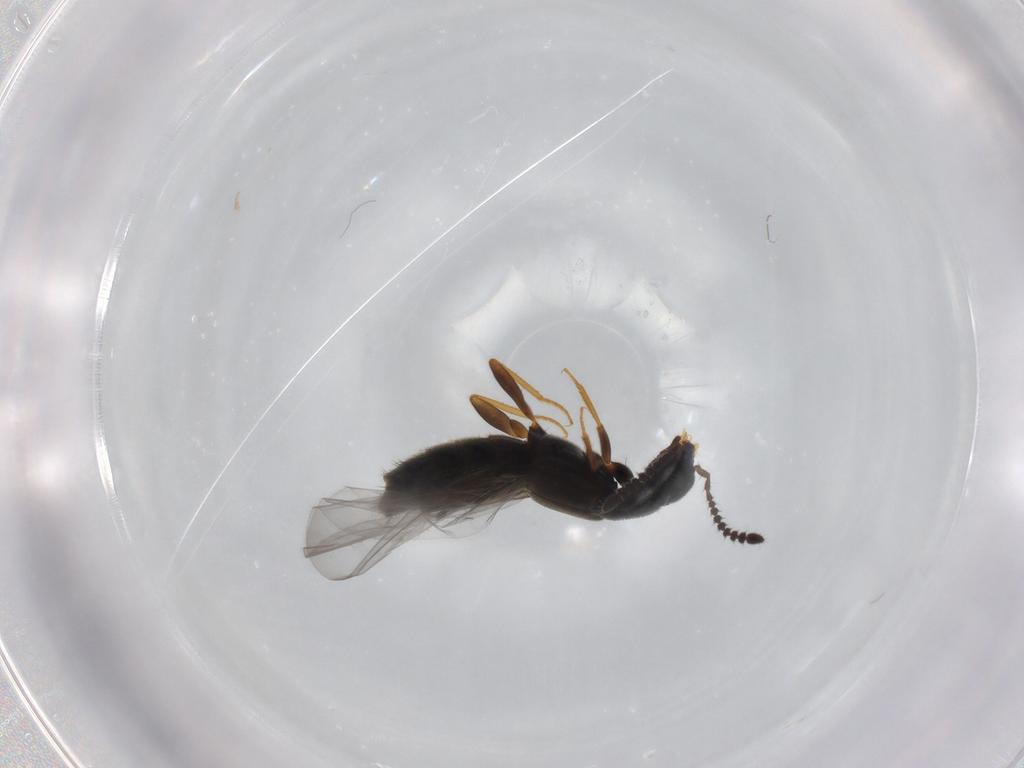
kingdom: Animalia
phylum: Arthropoda
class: Insecta
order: Coleoptera
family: Staphylinidae
